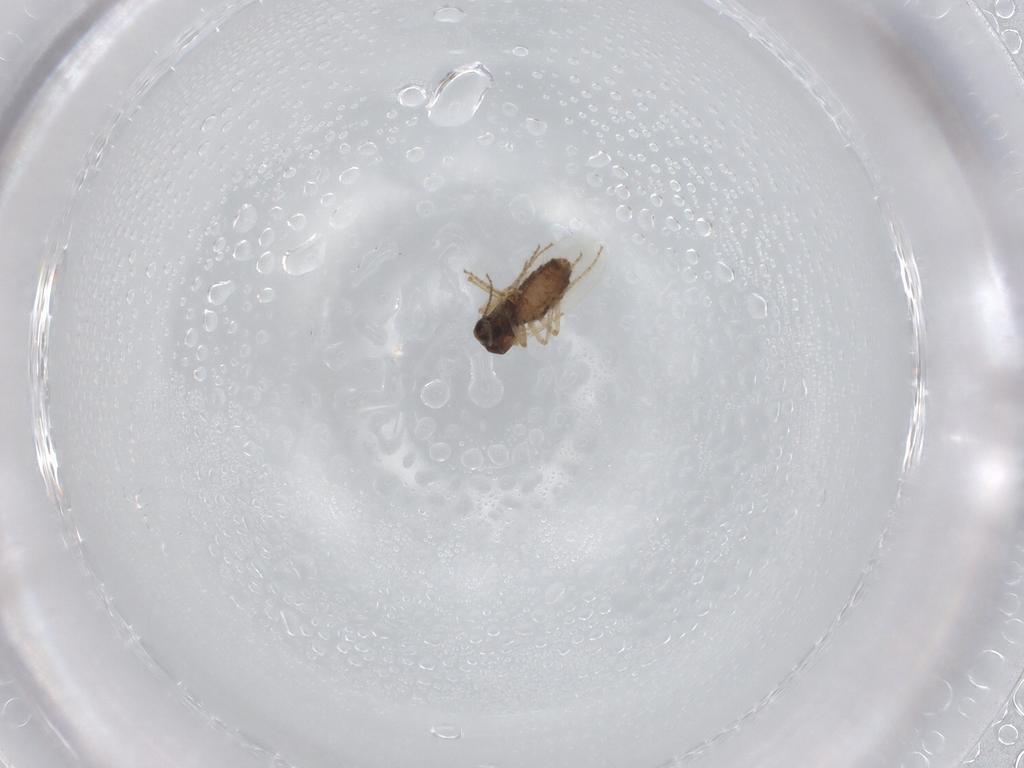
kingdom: Animalia
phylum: Arthropoda
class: Insecta
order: Diptera
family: Ceratopogonidae
